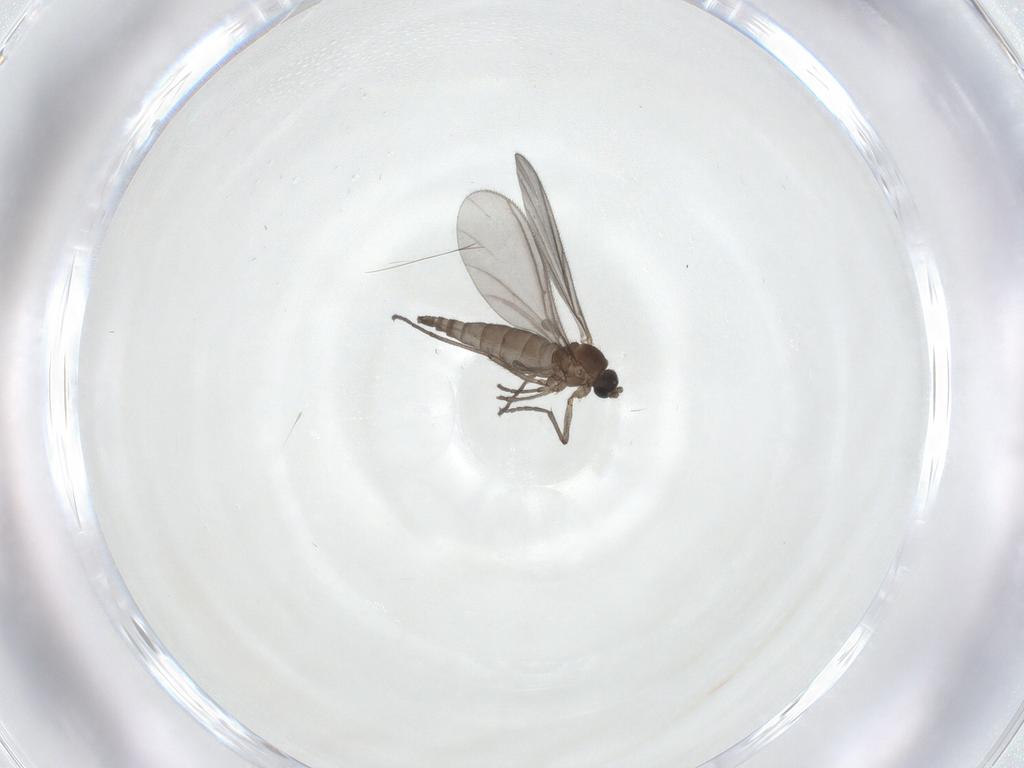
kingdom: Animalia
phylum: Arthropoda
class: Insecta
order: Diptera
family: Sciaridae
